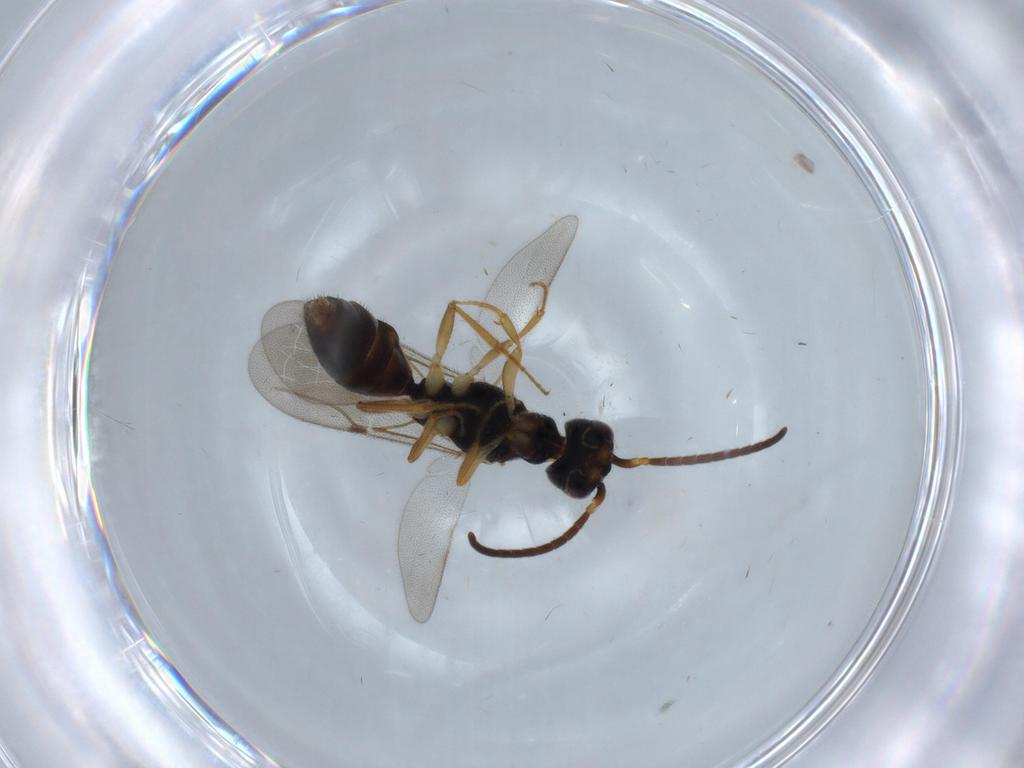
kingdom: Animalia
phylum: Arthropoda
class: Insecta
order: Hymenoptera
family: Bethylidae
